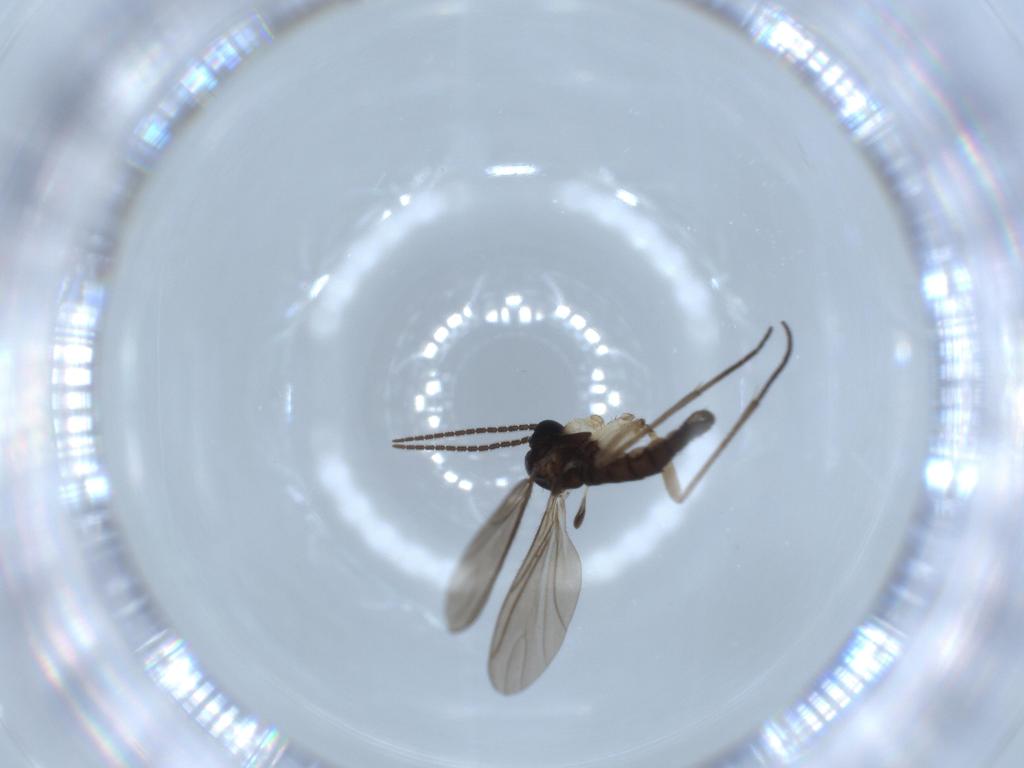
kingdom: Animalia
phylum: Arthropoda
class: Insecta
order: Diptera
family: Sciaridae
